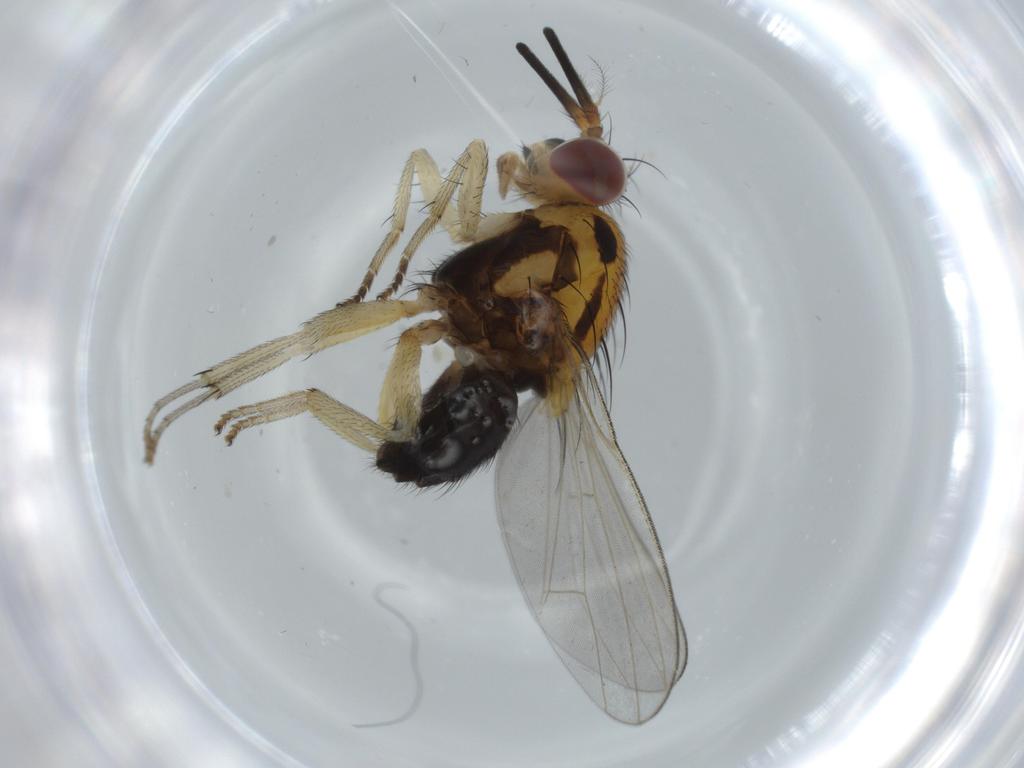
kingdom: Animalia
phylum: Arthropoda
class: Insecta
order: Diptera
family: Lauxaniidae
